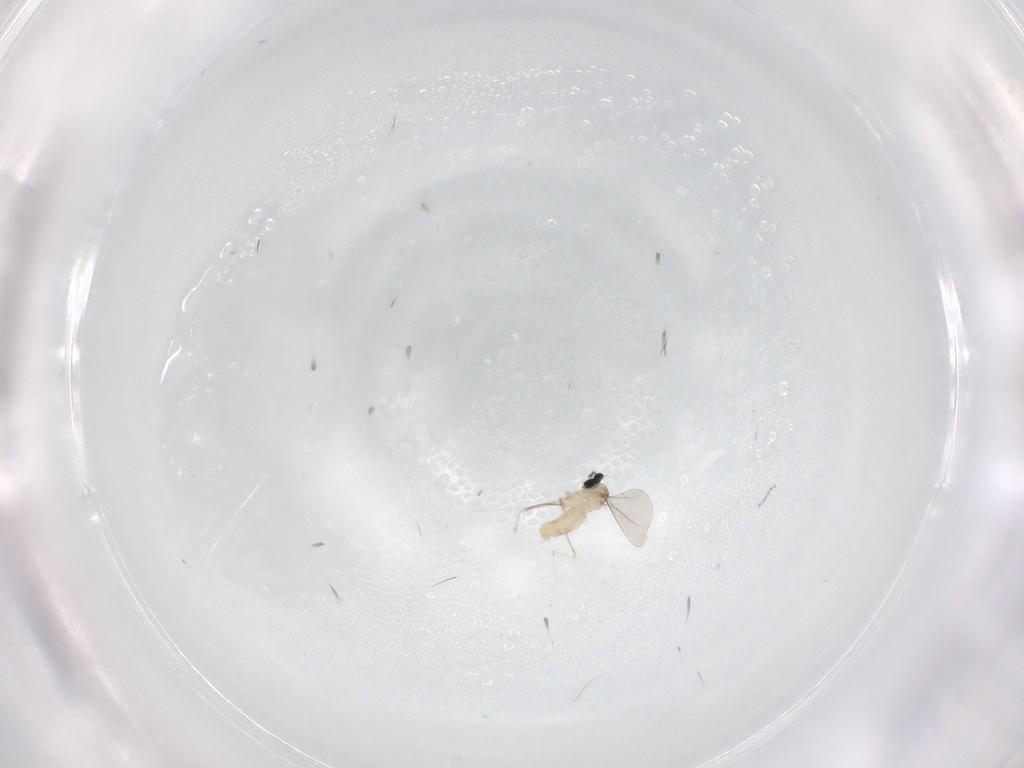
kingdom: Animalia
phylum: Arthropoda
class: Insecta
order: Diptera
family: Cecidomyiidae
